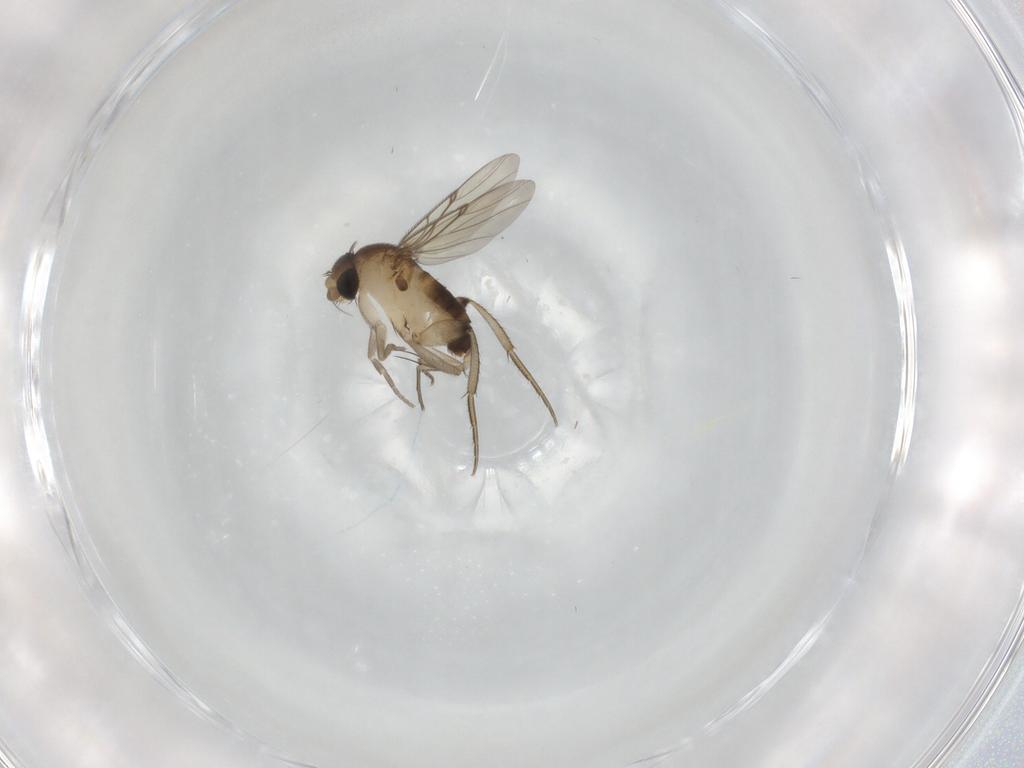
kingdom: Animalia
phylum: Arthropoda
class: Insecta
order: Diptera
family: Phoridae
